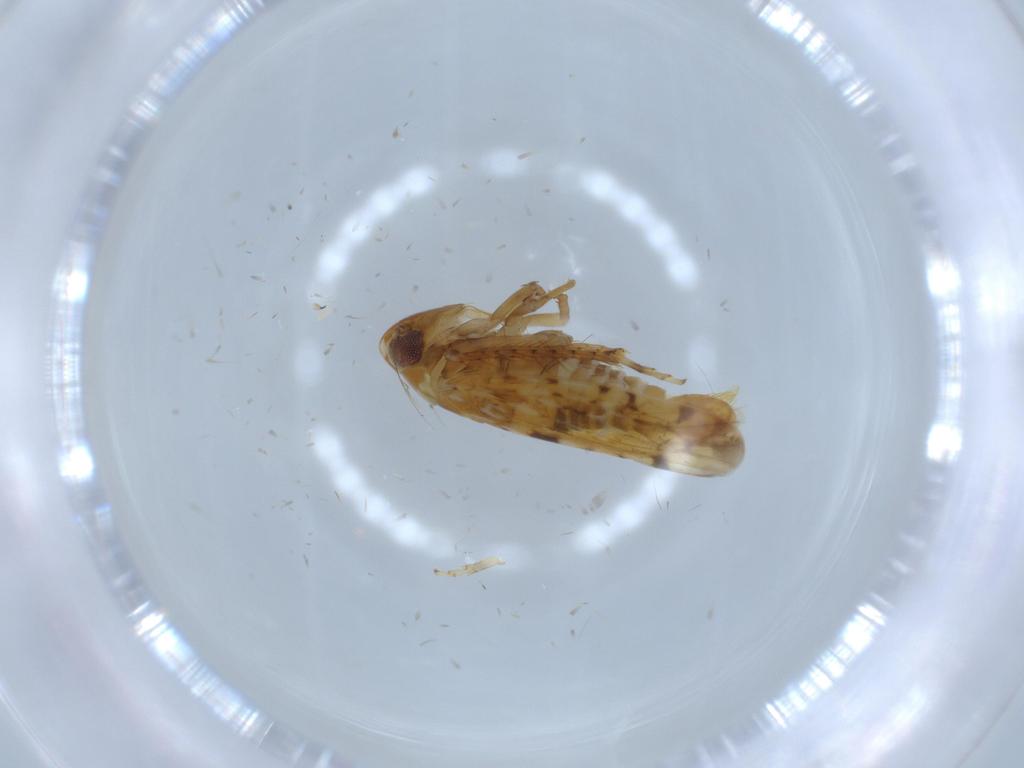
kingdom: Animalia
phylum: Arthropoda
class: Insecta
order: Hemiptera
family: Cicadellidae
